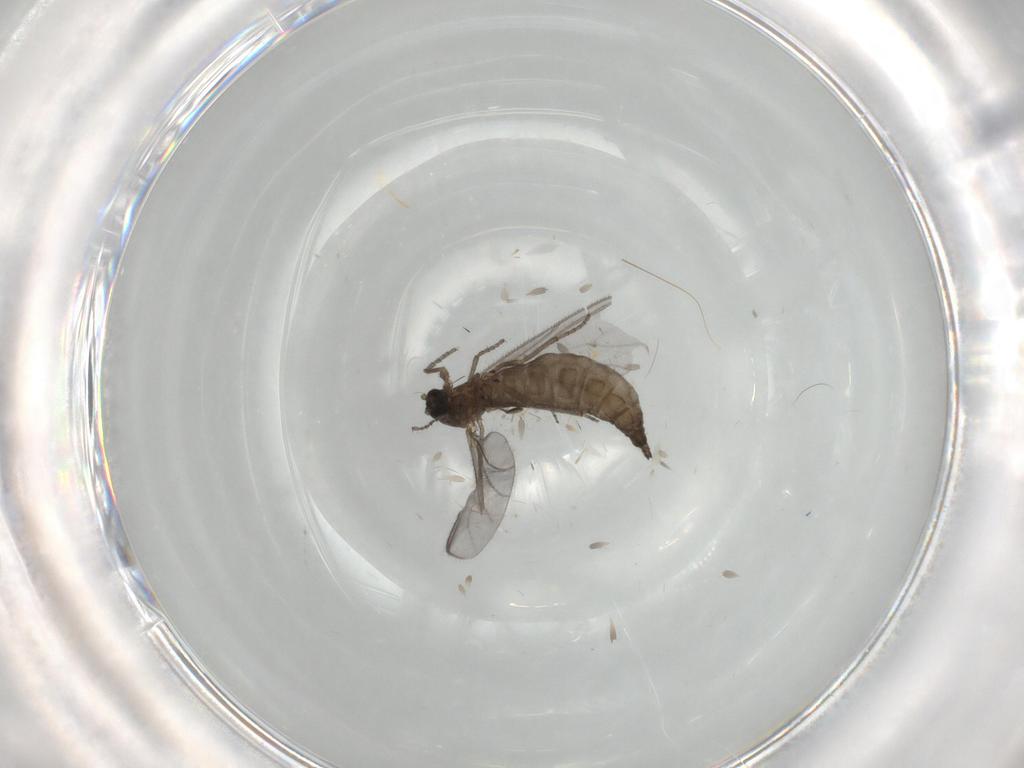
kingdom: Animalia
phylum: Arthropoda
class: Insecta
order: Diptera
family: Sciaridae
